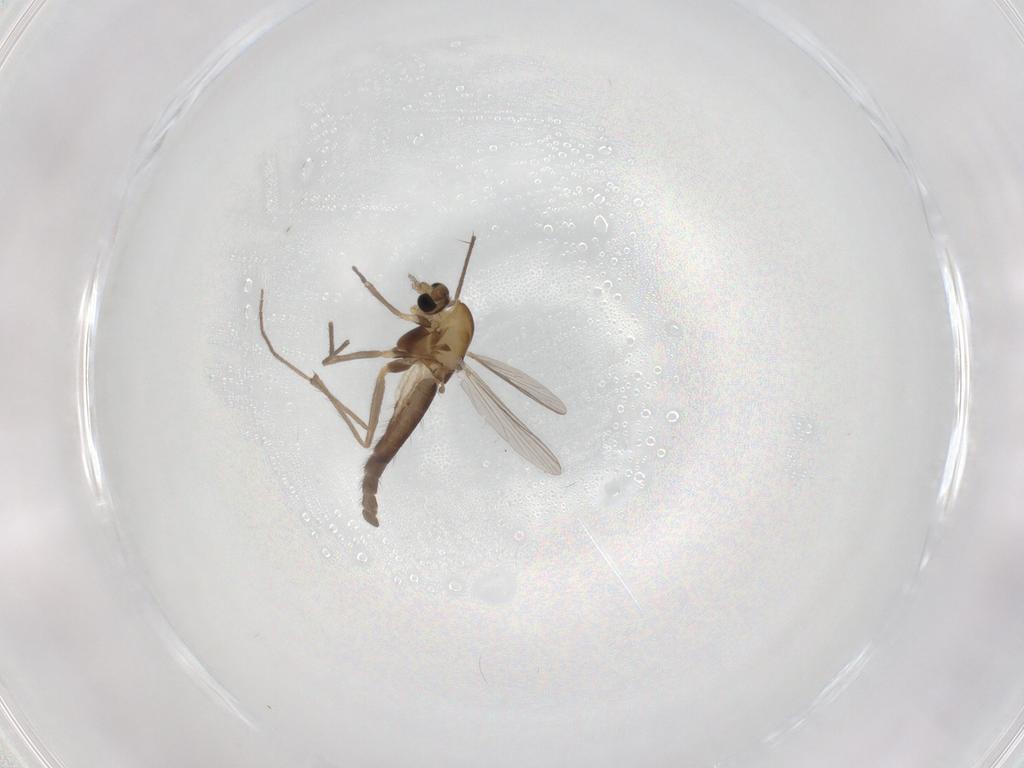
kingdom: Animalia
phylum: Arthropoda
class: Insecta
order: Diptera
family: Chironomidae
